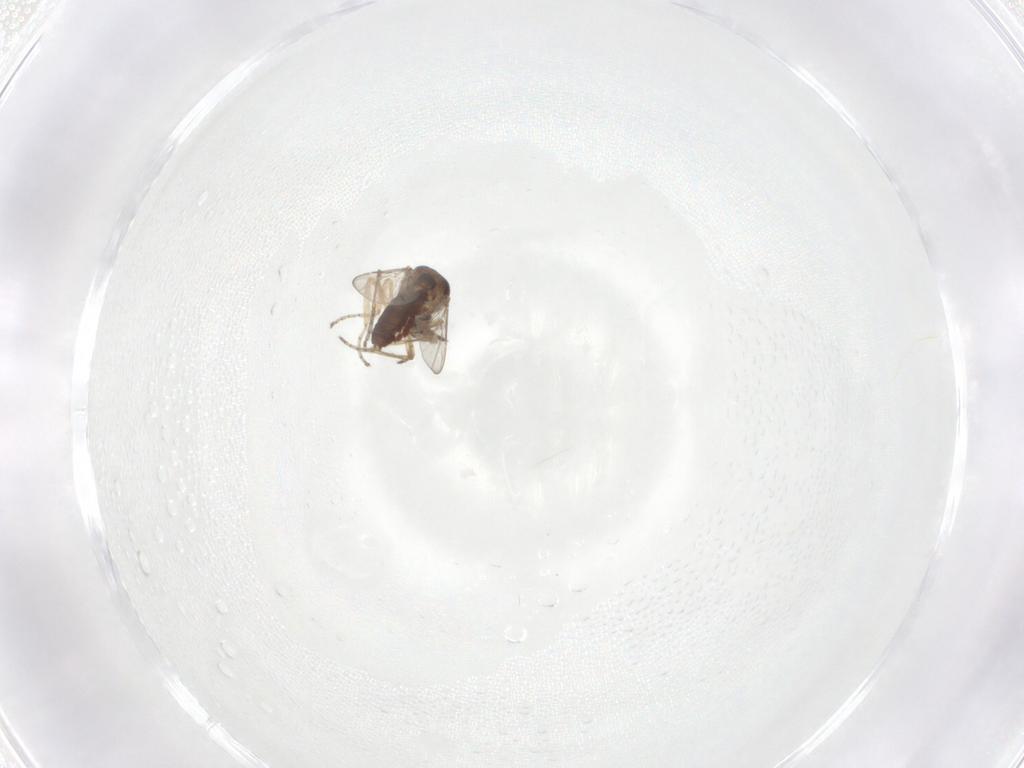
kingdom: Animalia
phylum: Arthropoda
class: Insecta
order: Diptera
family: Ceratopogonidae
